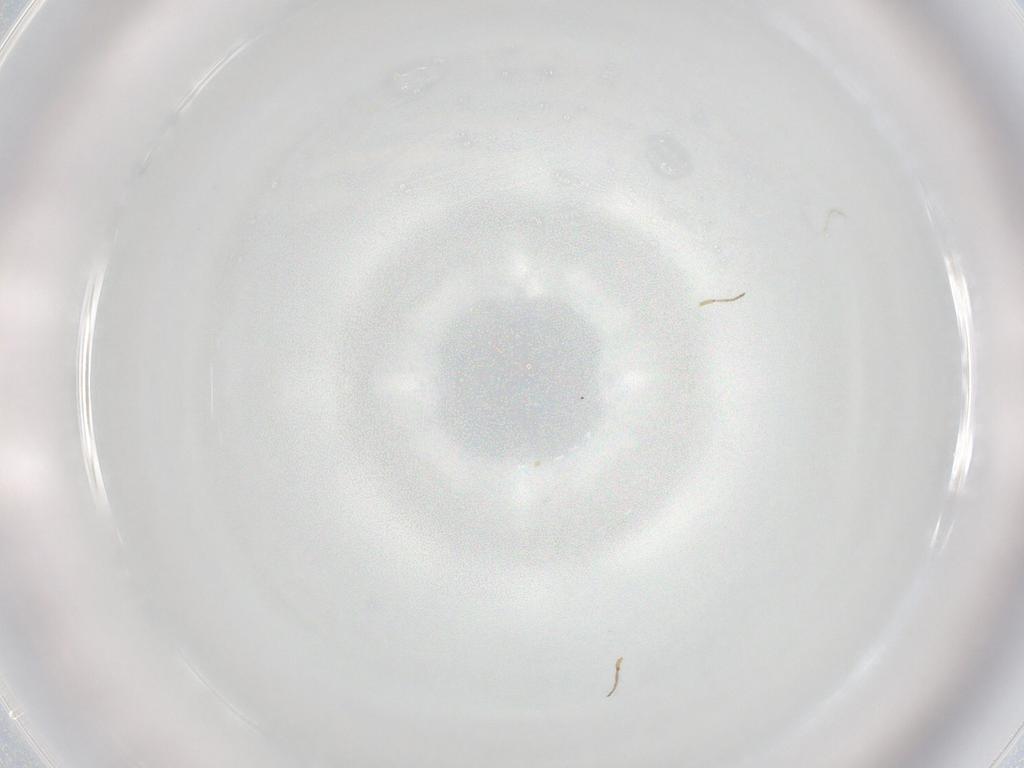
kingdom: Animalia
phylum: Arthropoda
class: Insecta
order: Diptera
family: Ceratopogonidae
